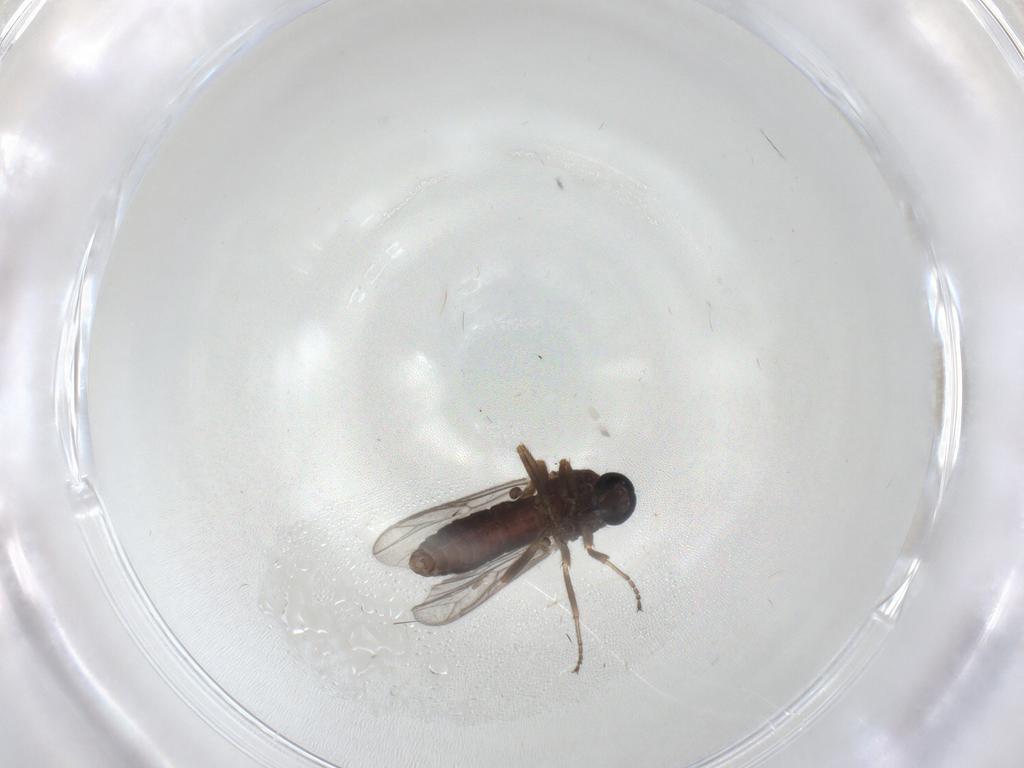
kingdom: Animalia
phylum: Arthropoda
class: Insecta
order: Diptera
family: Ceratopogonidae
